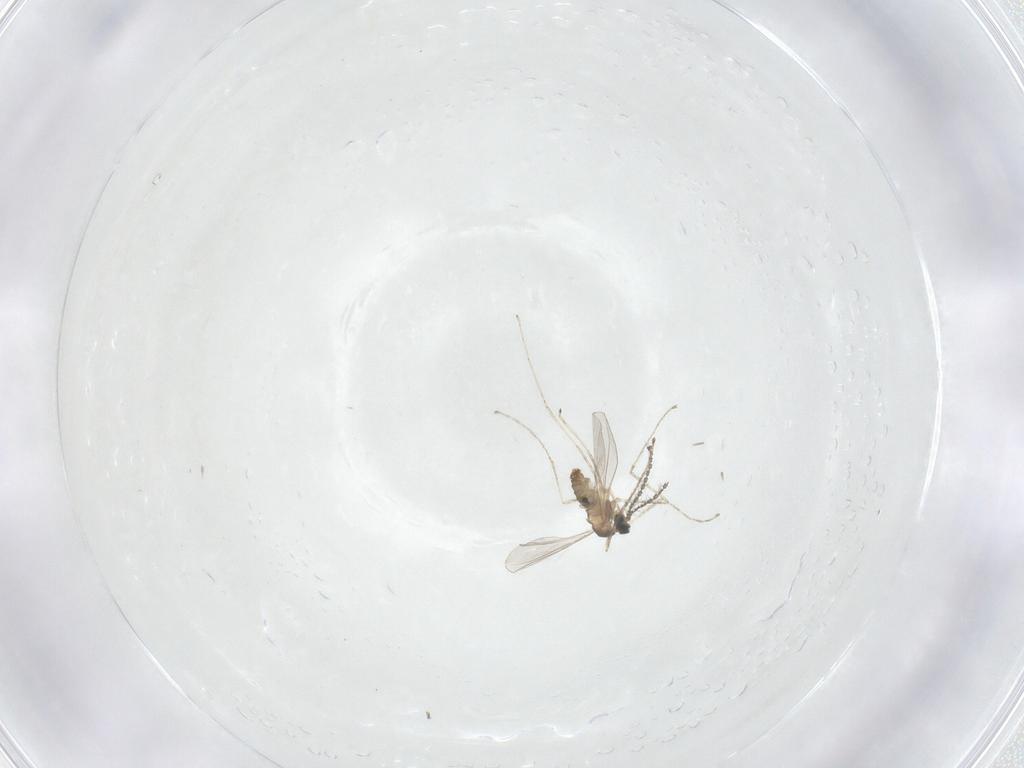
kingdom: Animalia
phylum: Arthropoda
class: Insecta
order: Diptera
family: Cecidomyiidae
